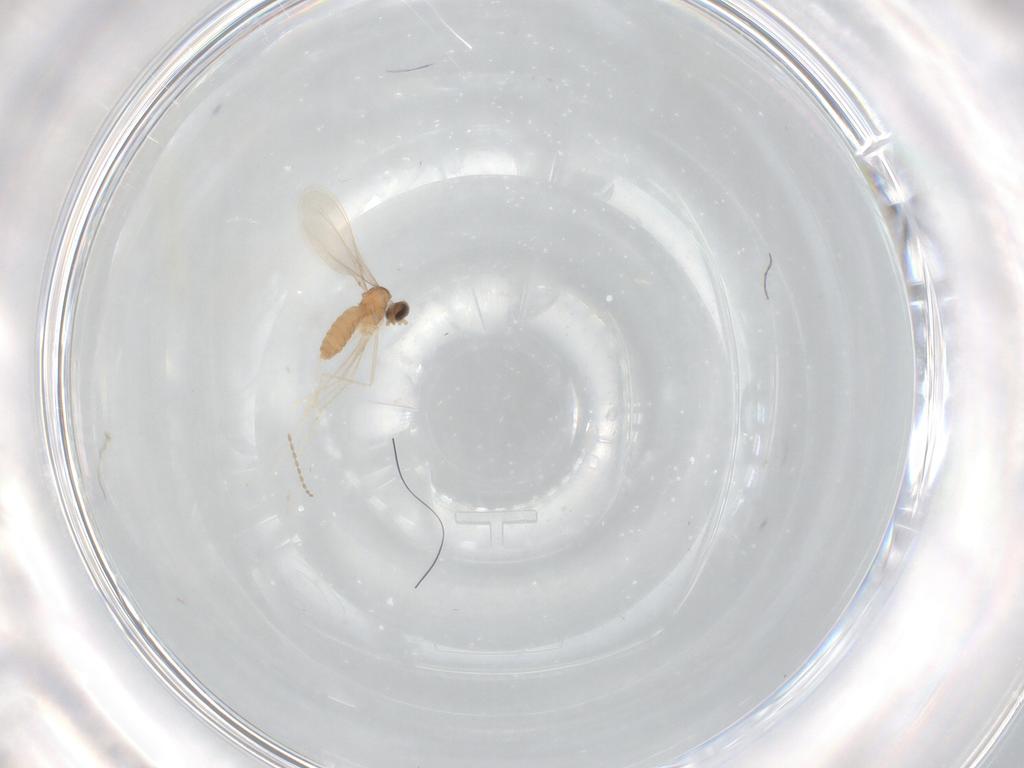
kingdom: Animalia
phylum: Arthropoda
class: Insecta
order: Diptera
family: Cecidomyiidae
